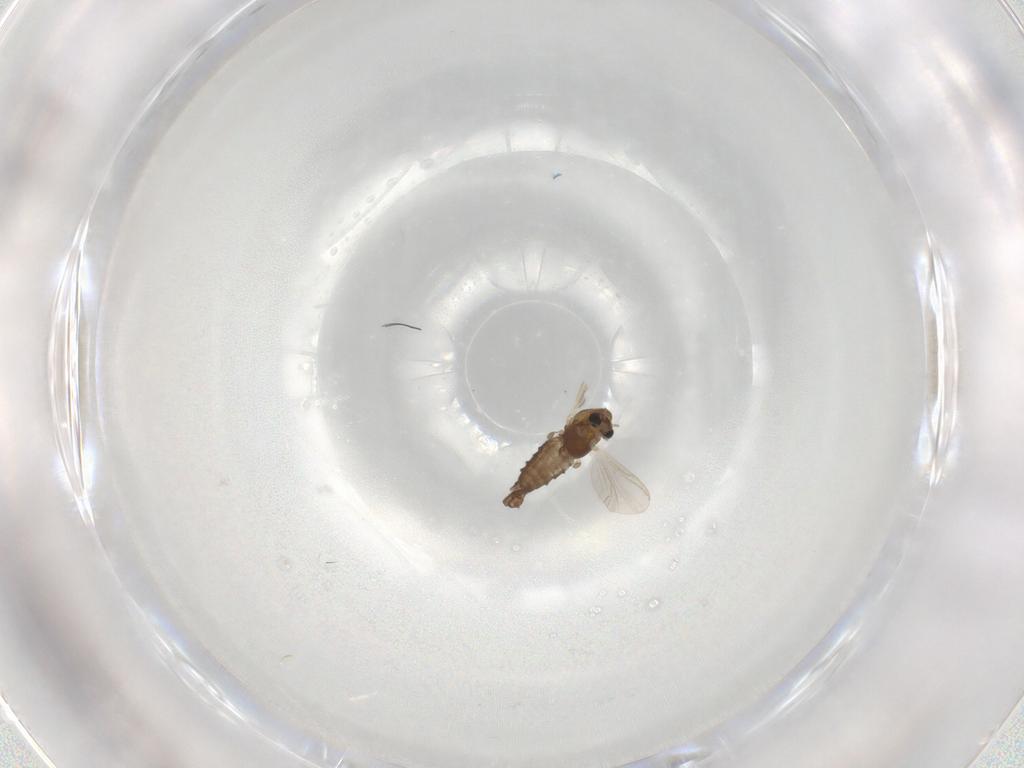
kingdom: Animalia
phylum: Arthropoda
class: Insecta
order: Diptera
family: Chironomidae
